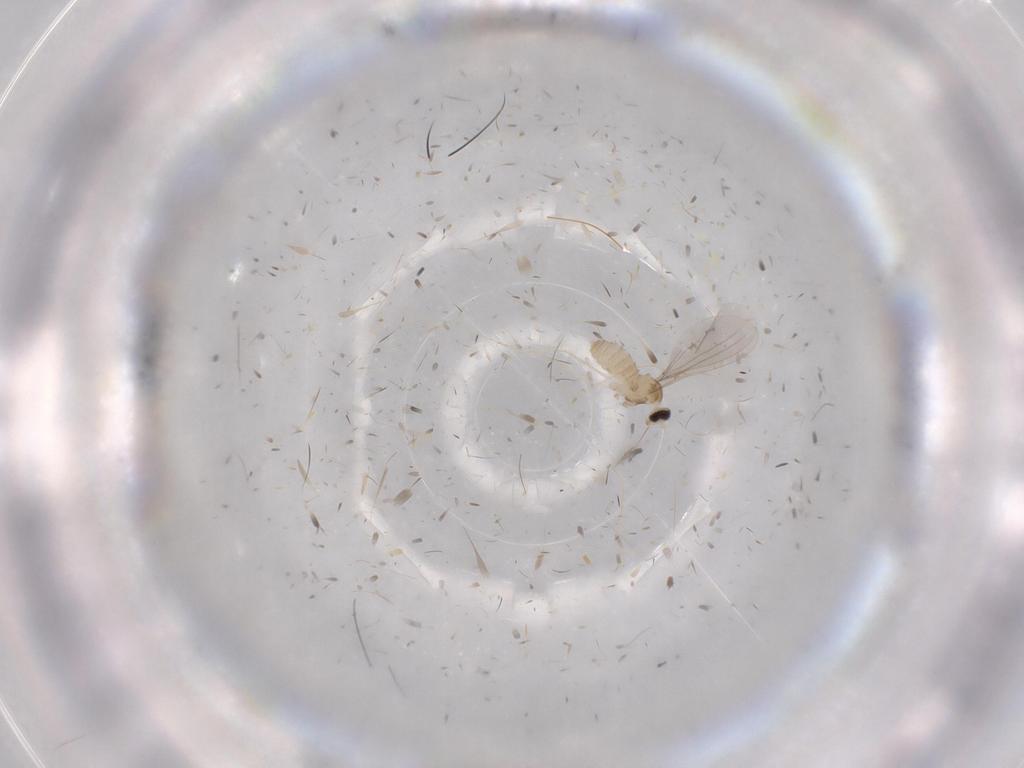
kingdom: Animalia
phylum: Arthropoda
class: Insecta
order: Diptera
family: Cecidomyiidae
